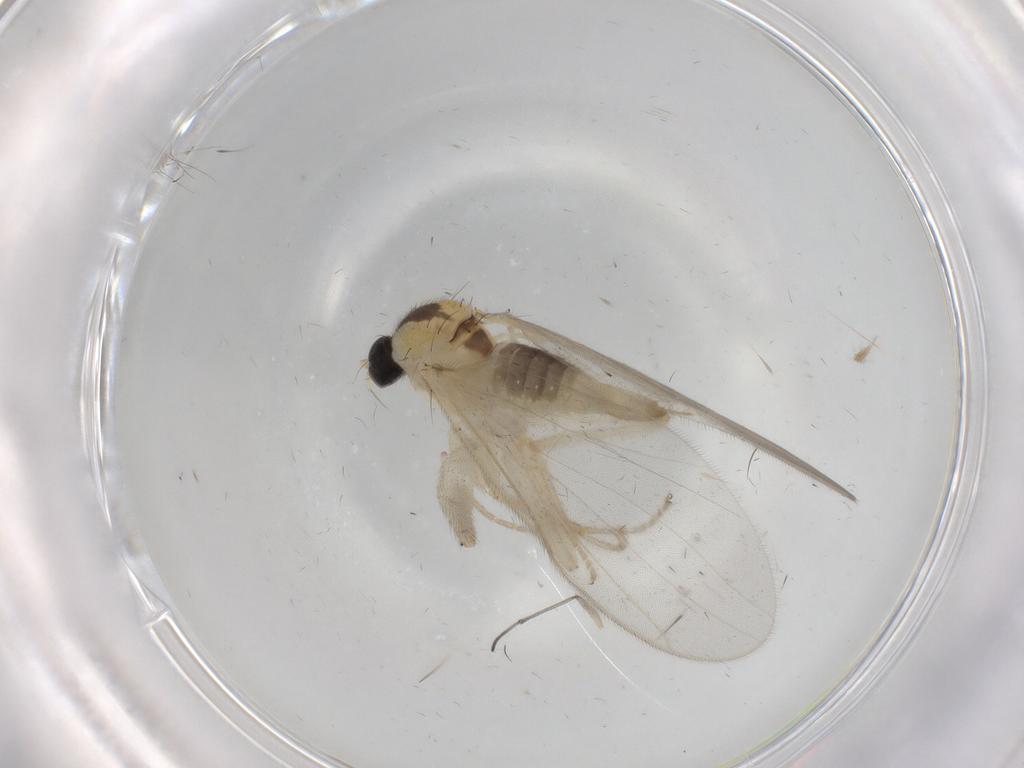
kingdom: Animalia
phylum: Arthropoda
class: Insecta
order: Diptera
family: Hybotidae
